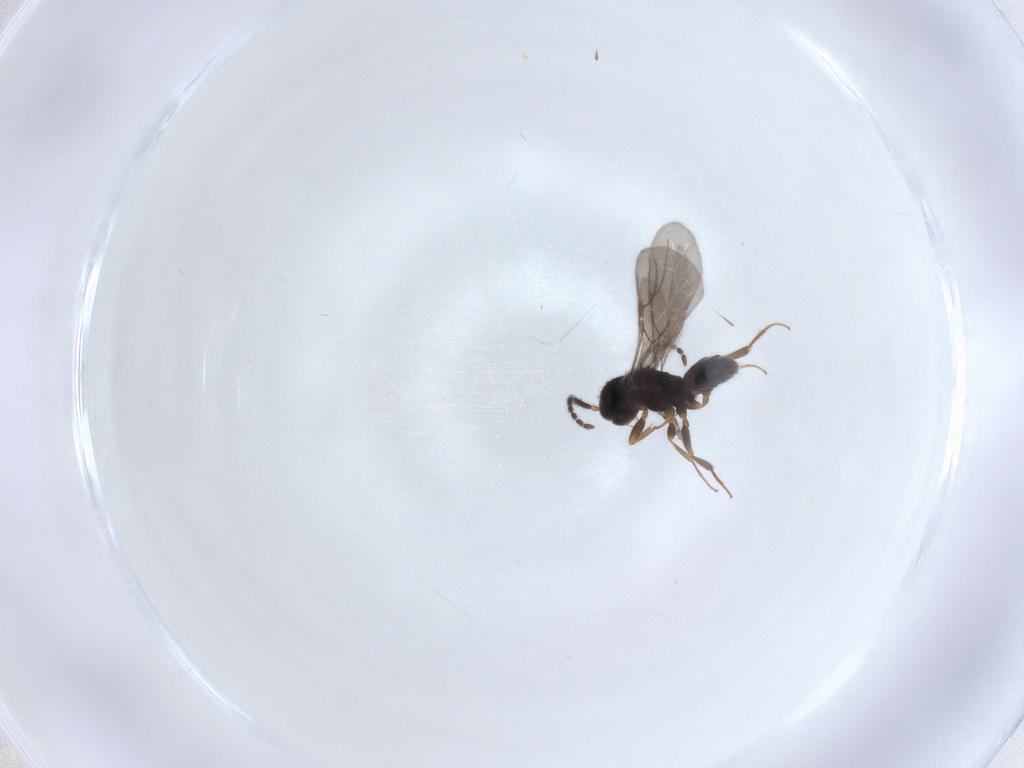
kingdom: Animalia
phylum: Arthropoda
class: Insecta
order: Hymenoptera
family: Bethylidae
